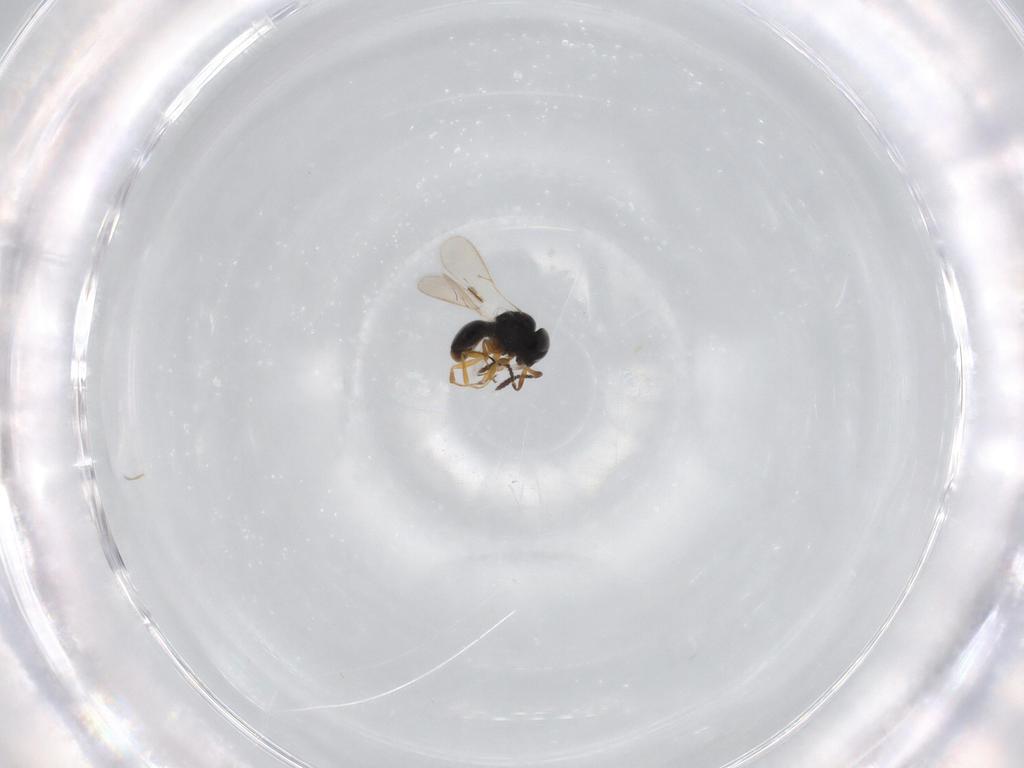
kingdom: Animalia
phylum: Arthropoda
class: Insecta
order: Hymenoptera
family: Scelionidae
